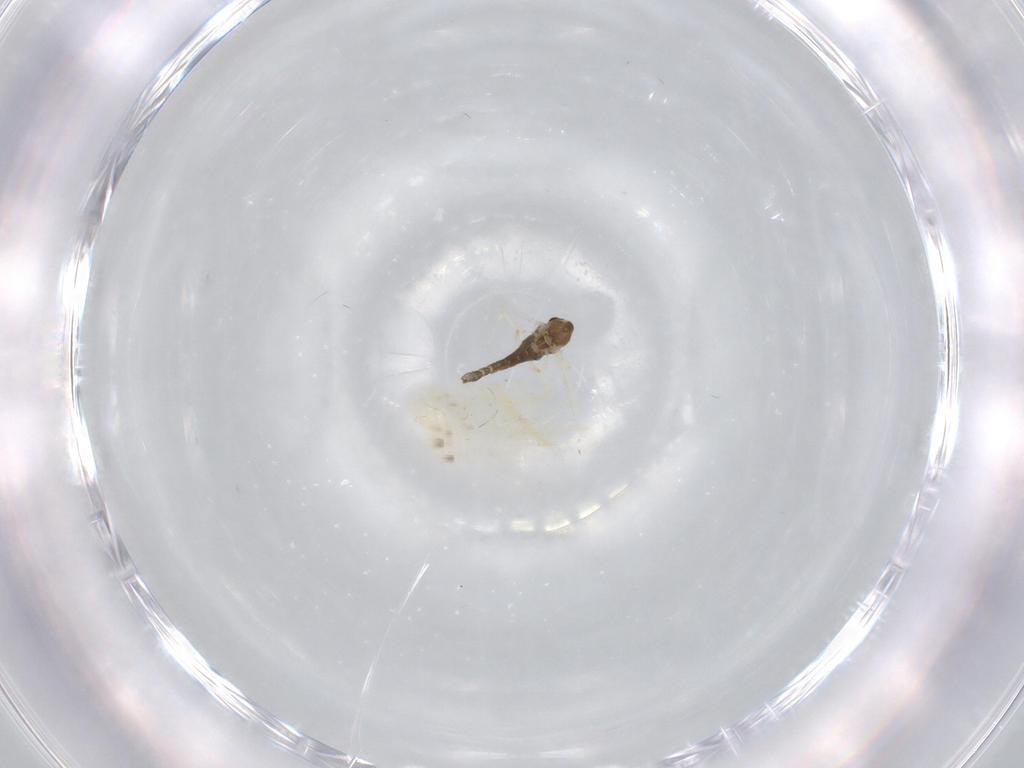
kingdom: Animalia
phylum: Arthropoda
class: Insecta
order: Diptera
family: Chironomidae
